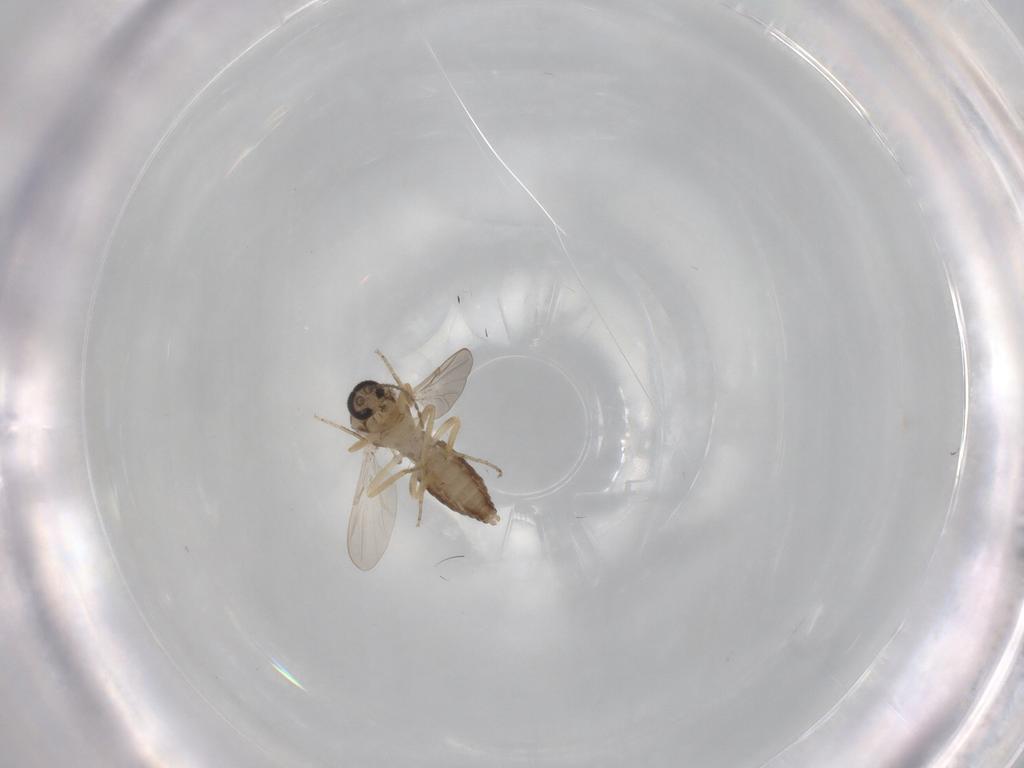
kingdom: Animalia
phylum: Arthropoda
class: Insecta
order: Diptera
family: Ceratopogonidae
